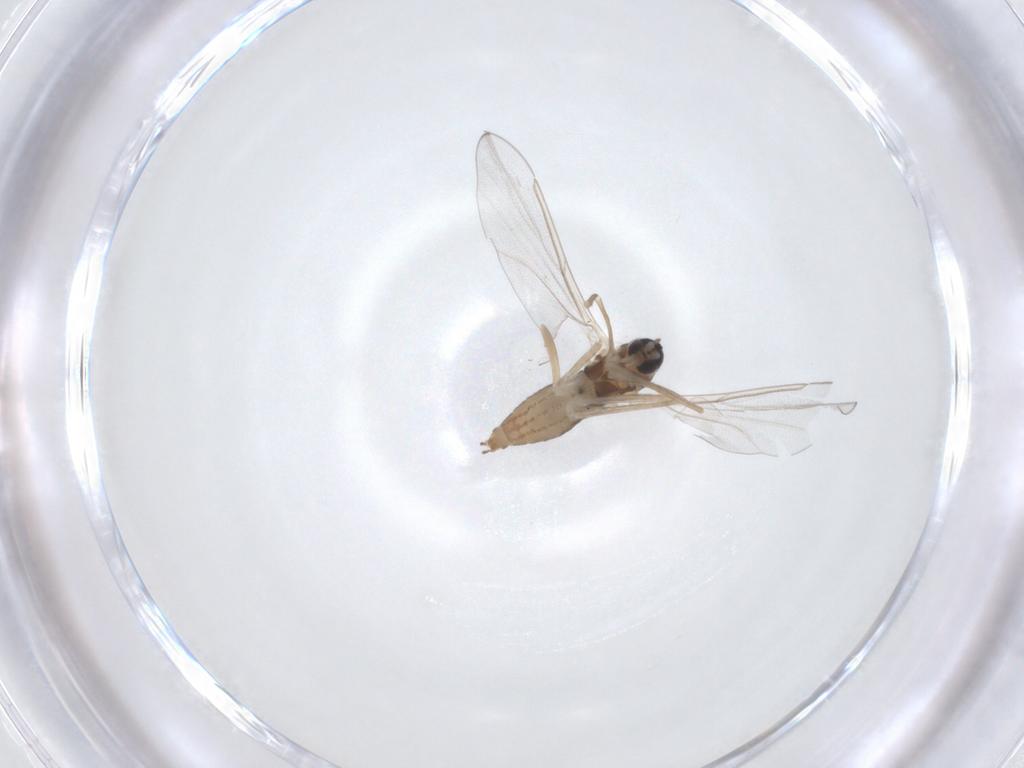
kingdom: Animalia
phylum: Arthropoda
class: Insecta
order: Diptera
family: Cecidomyiidae
